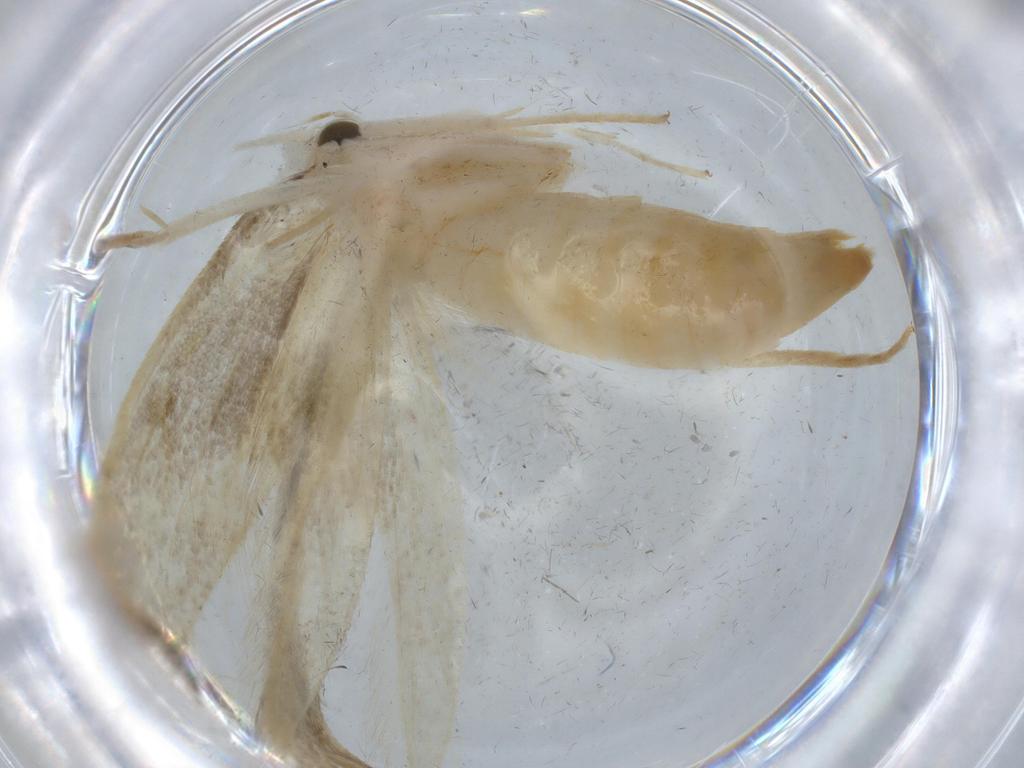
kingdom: Animalia
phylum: Arthropoda
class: Insecta
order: Lepidoptera
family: Tineidae
